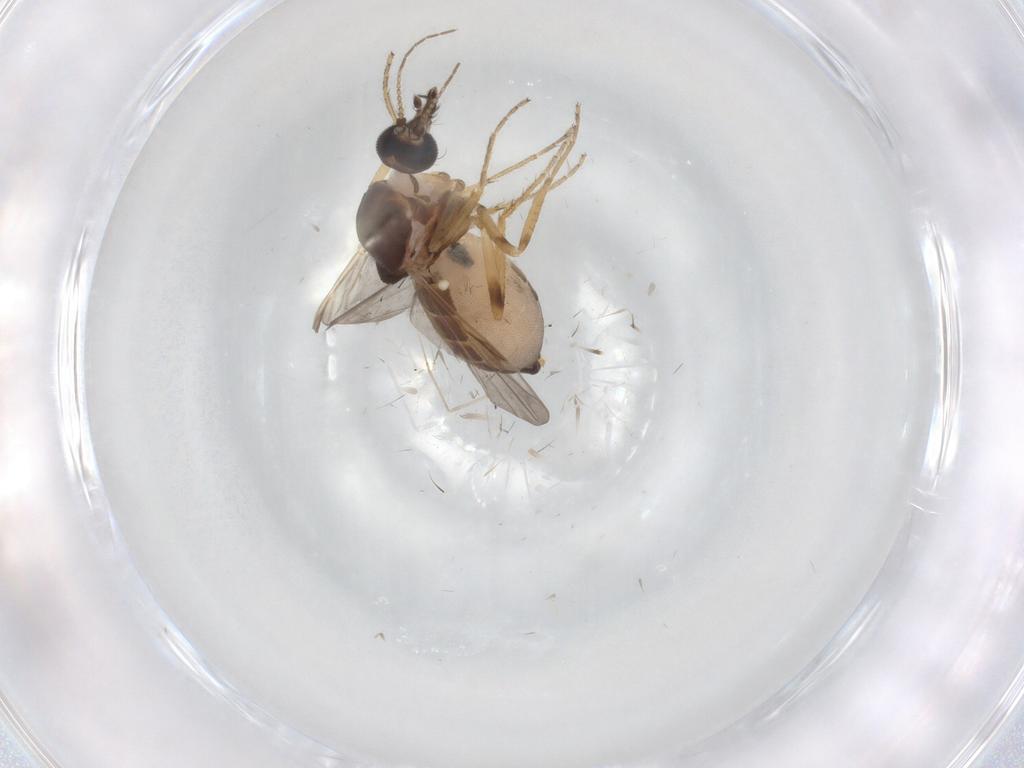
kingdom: Animalia
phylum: Arthropoda
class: Insecta
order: Diptera
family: Ceratopogonidae
